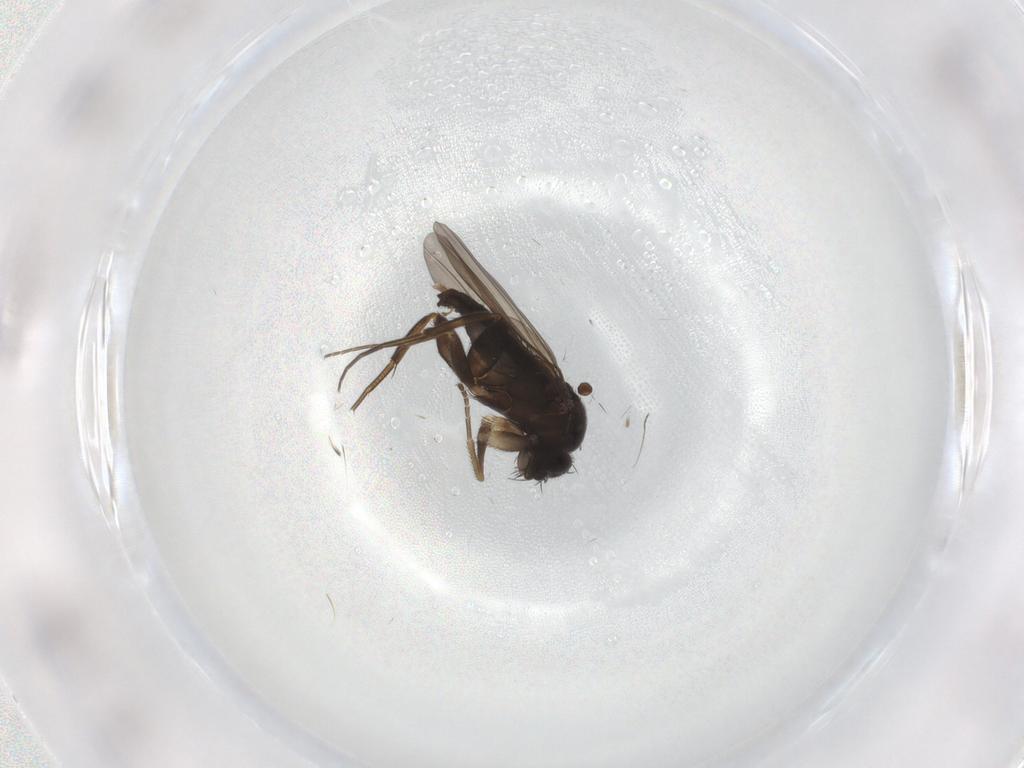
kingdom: Animalia
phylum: Arthropoda
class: Insecta
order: Diptera
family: Phoridae
